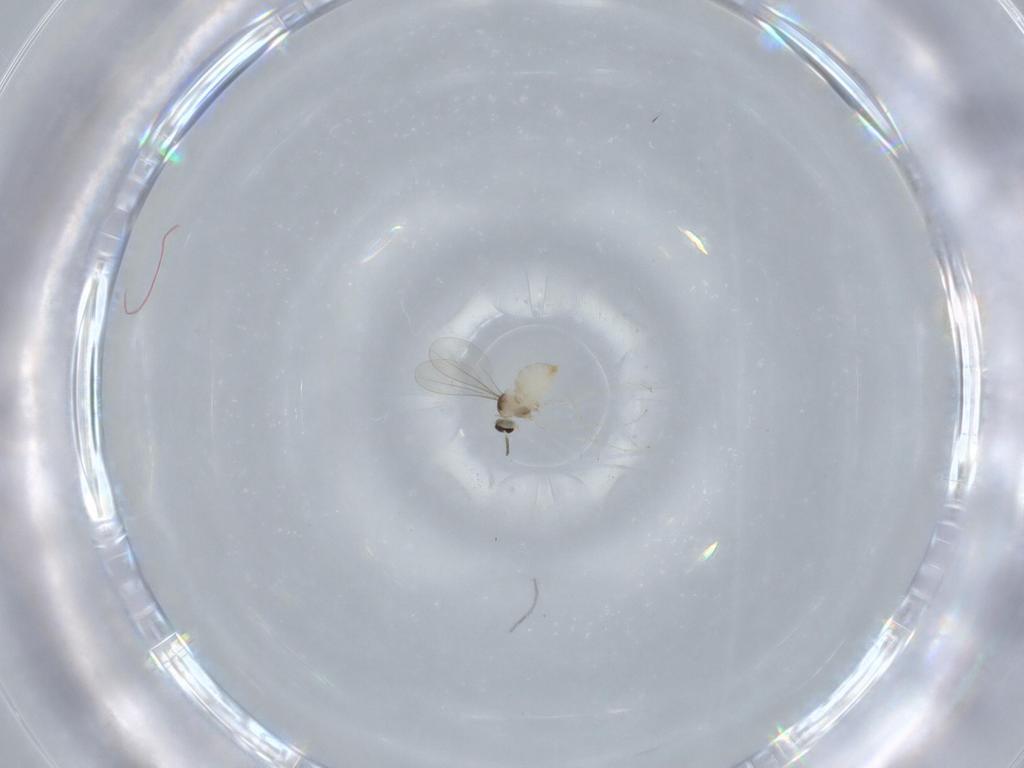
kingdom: Animalia
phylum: Arthropoda
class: Insecta
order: Diptera
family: Cecidomyiidae
